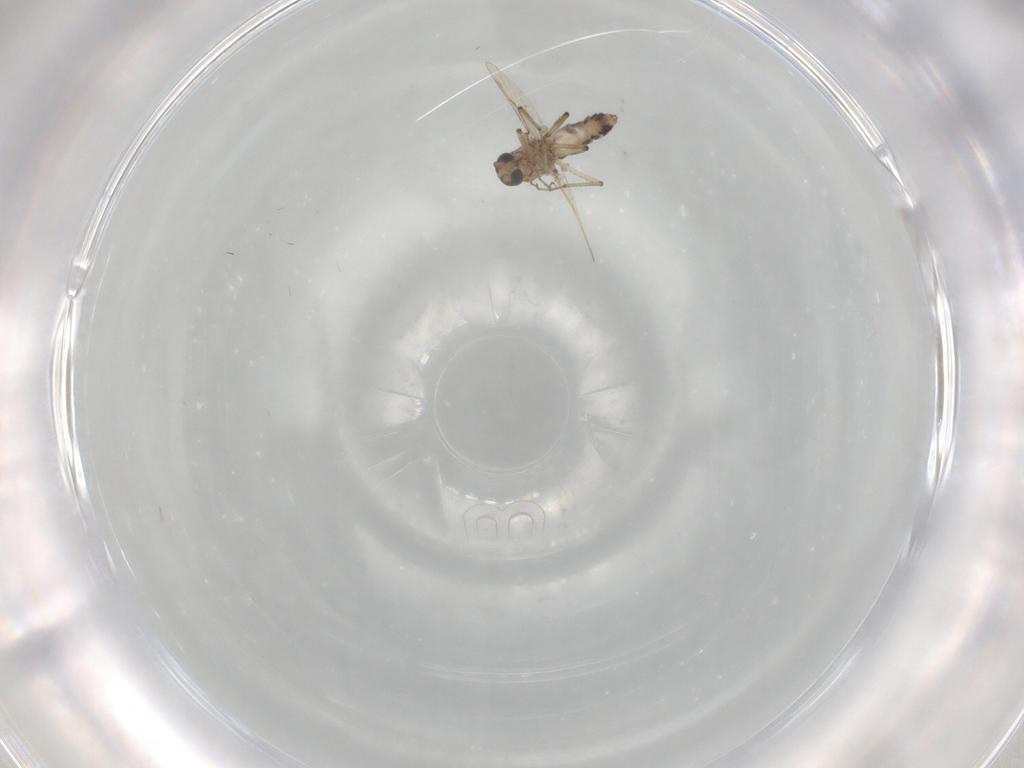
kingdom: Animalia
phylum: Arthropoda
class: Insecta
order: Diptera
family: Ceratopogonidae
